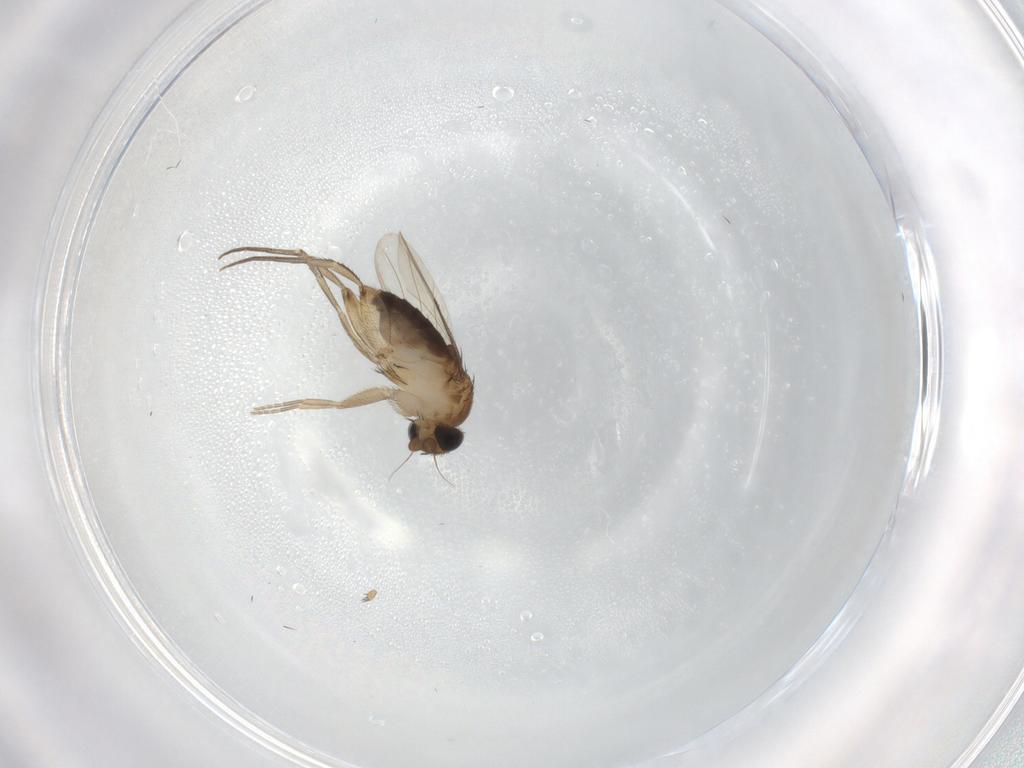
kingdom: Animalia
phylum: Arthropoda
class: Insecta
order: Diptera
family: Phoridae
